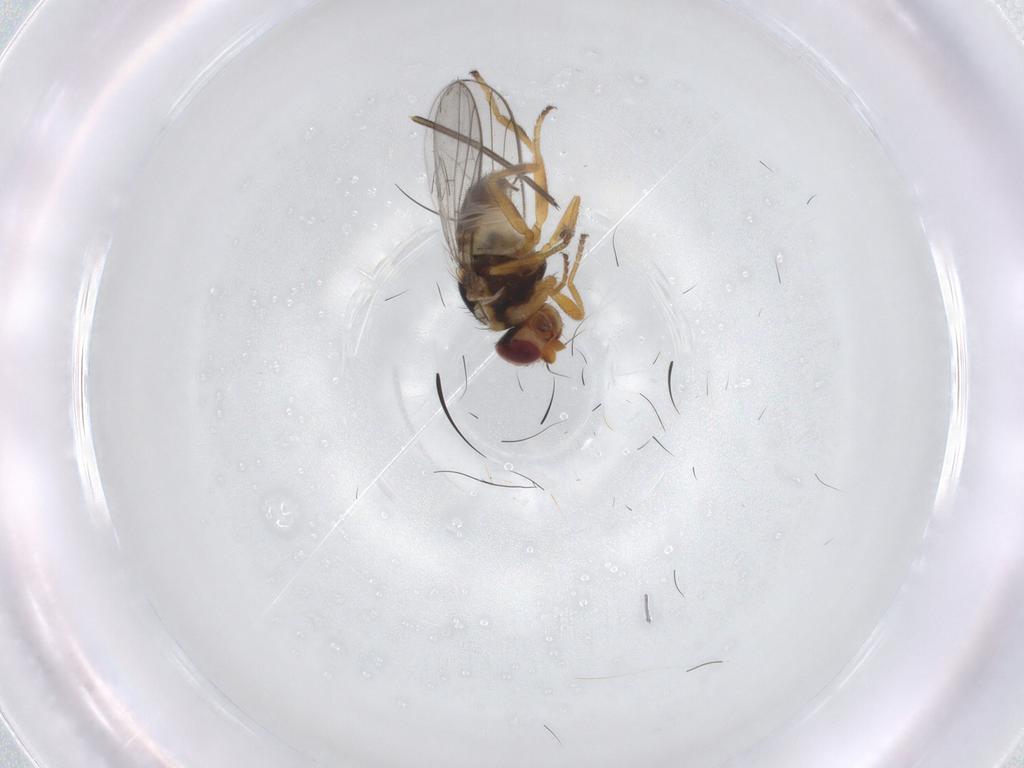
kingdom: Animalia
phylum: Arthropoda
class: Insecta
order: Diptera
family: Chloropidae
